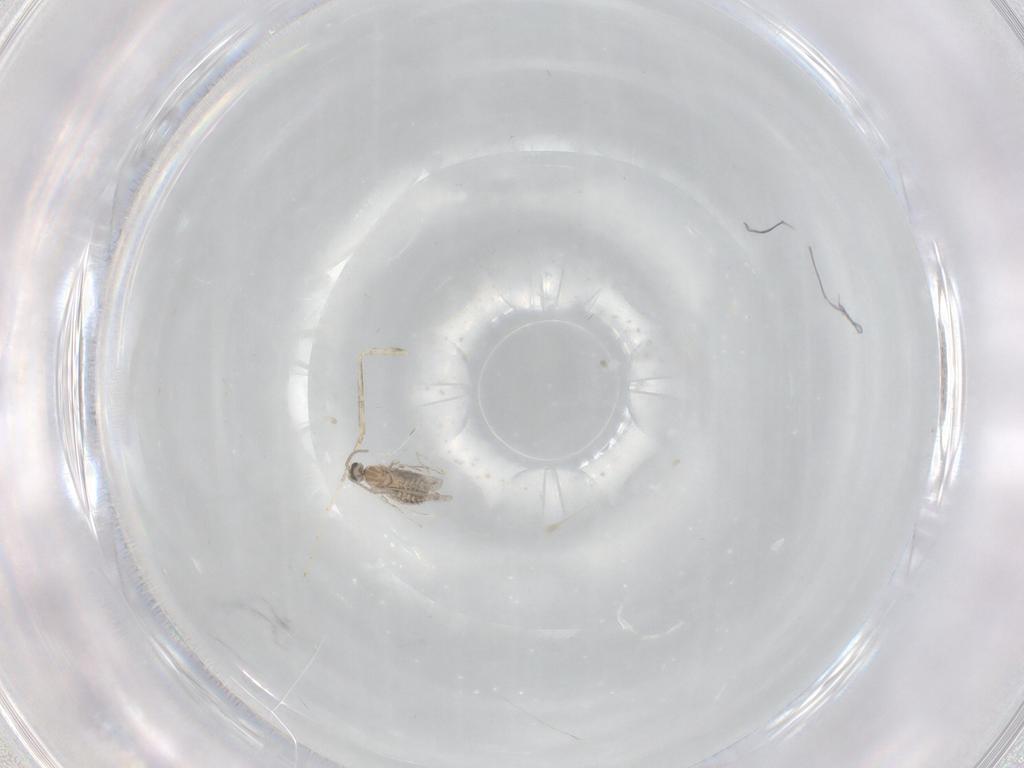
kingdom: Animalia
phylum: Arthropoda
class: Insecta
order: Diptera
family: Cecidomyiidae
